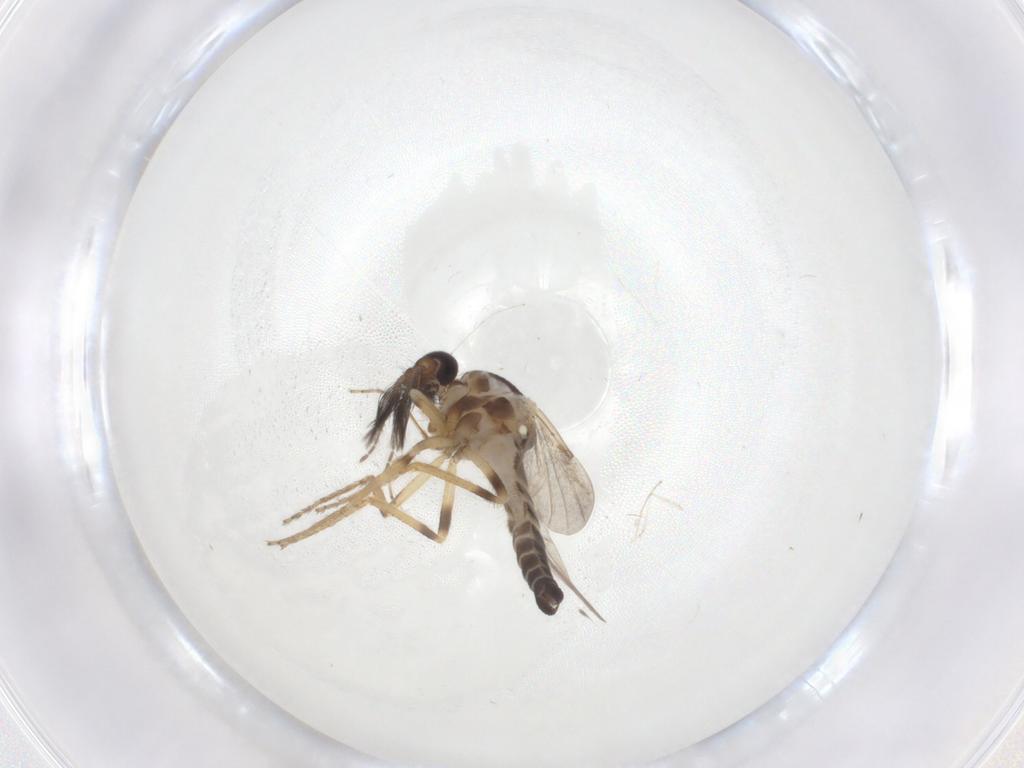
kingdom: Animalia
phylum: Arthropoda
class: Insecta
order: Diptera
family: Ceratopogonidae
